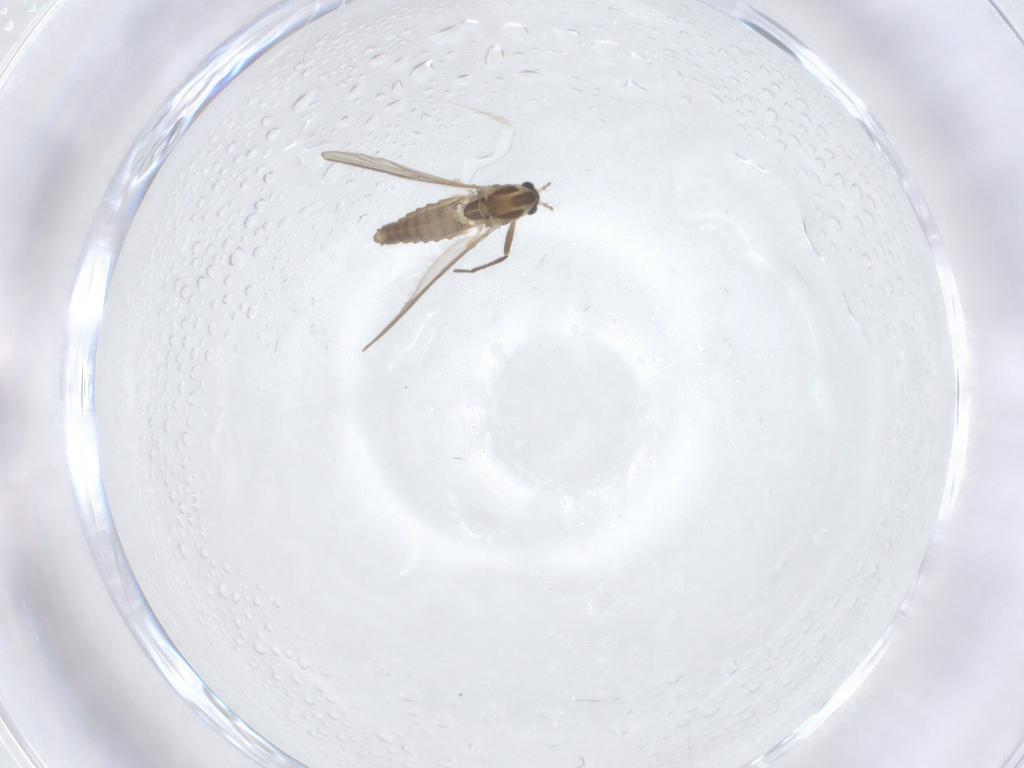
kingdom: Animalia
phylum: Arthropoda
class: Insecta
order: Diptera
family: Chironomidae
